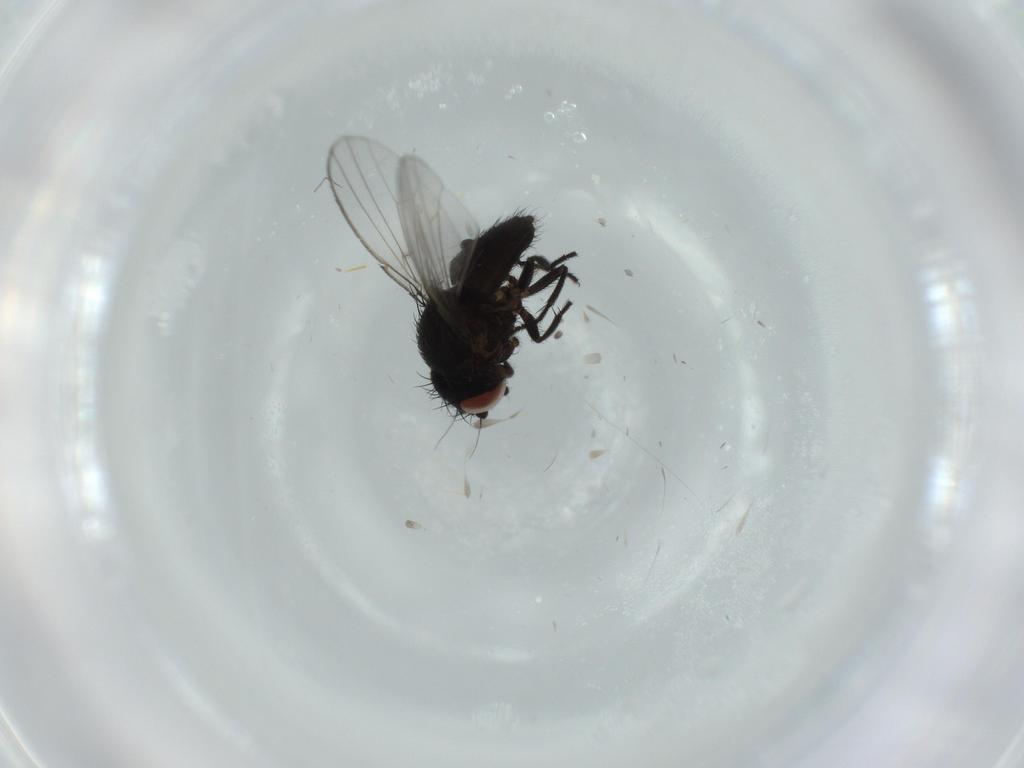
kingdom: Animalia
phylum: Arthropoda
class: Insecta
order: Diptera
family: Milichiidae
